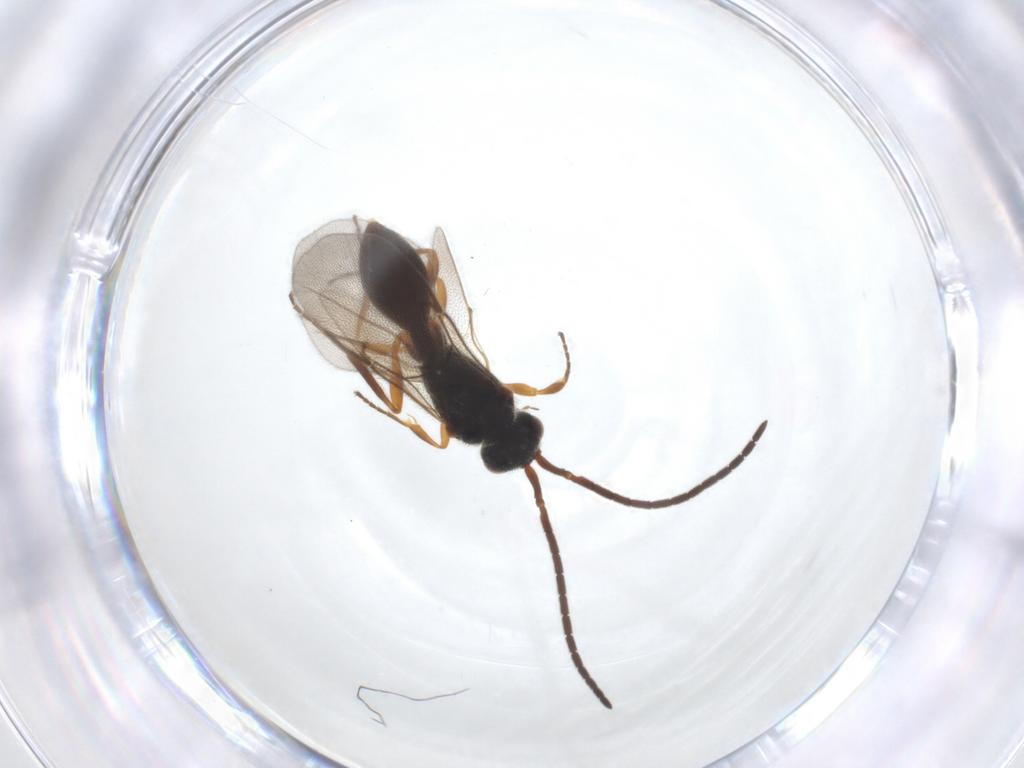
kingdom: Animalia
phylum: Arthropoda
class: Insecta
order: Hymenoptera
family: Diapriidae
